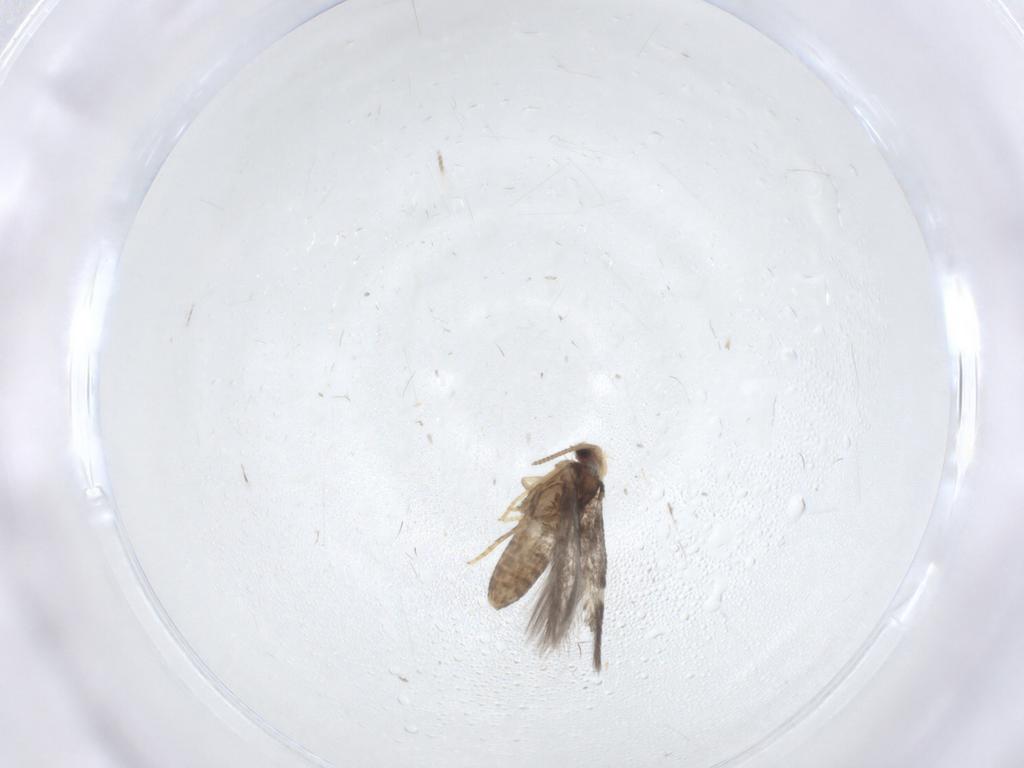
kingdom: Animalia
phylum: Arthropoda
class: Insecta
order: Lepidoptera
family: Nepticulidae
